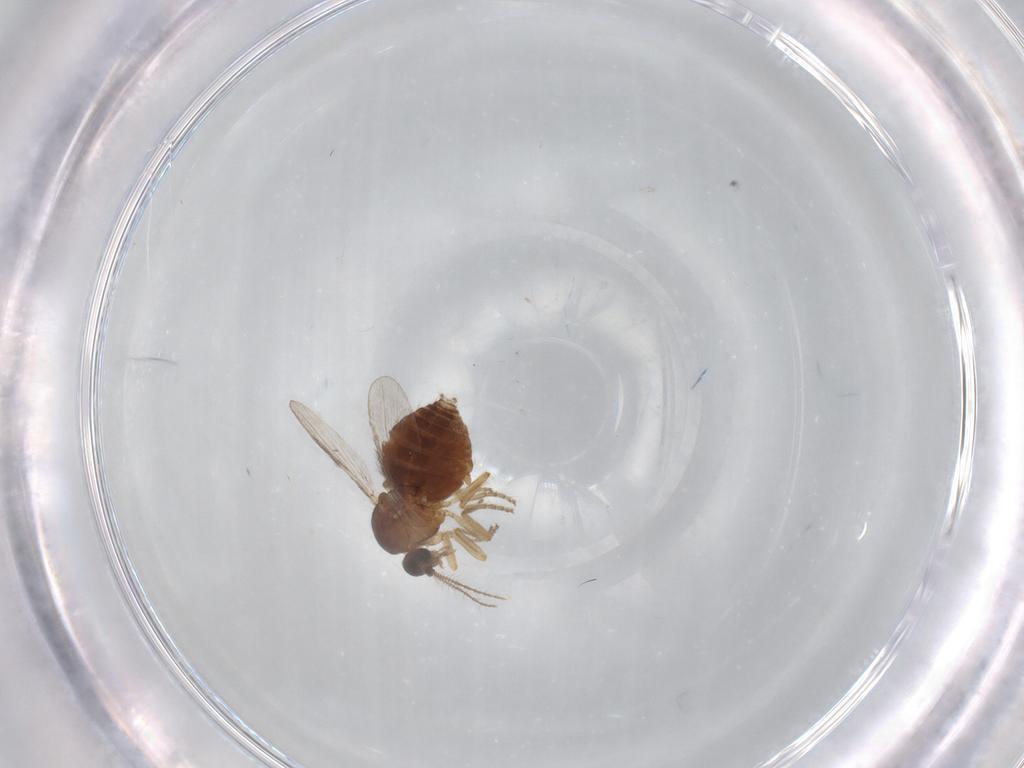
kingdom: Animalia
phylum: Arthropoda
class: Insecta
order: Diptera
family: Ceratopogonidae
